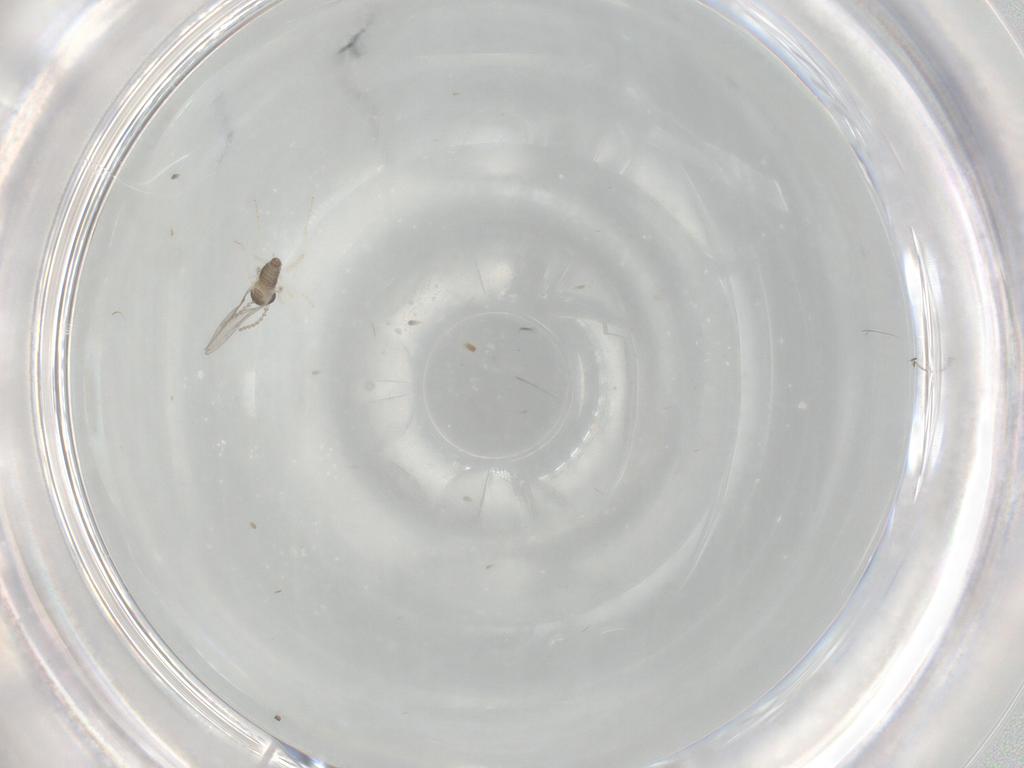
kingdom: Animalia
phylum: Arthropoda
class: Insecta
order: Diptera
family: Cecidomyiidae
